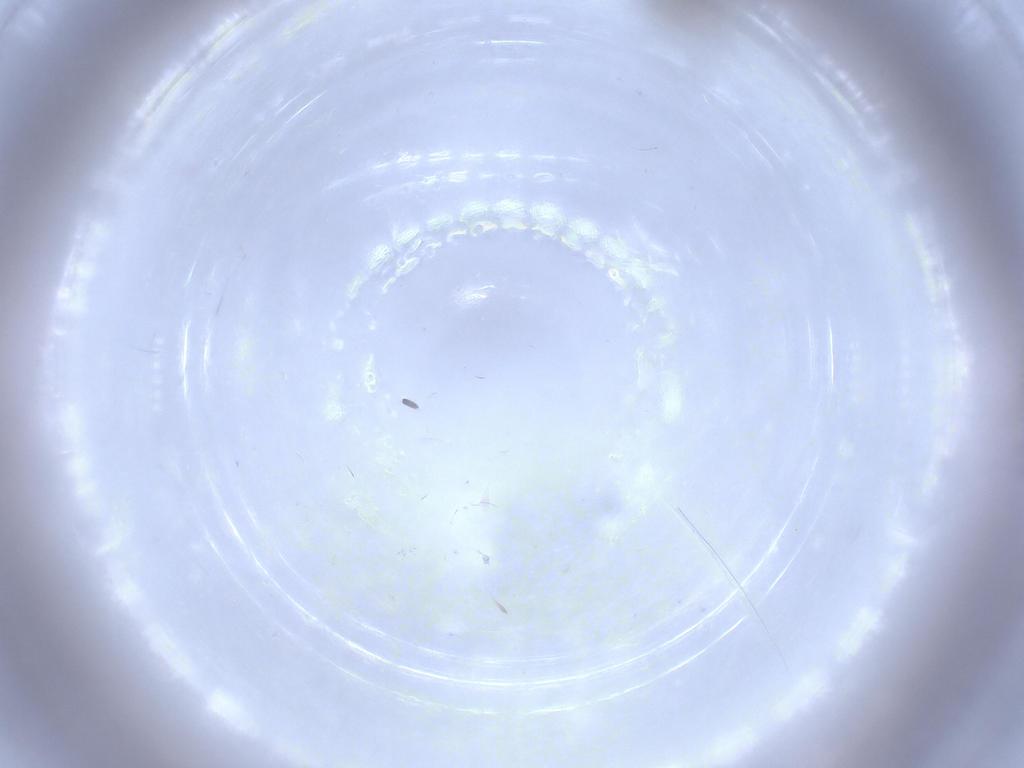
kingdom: Animalia
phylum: Arthropoda
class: Insecta
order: Diptera
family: Chironomidae
